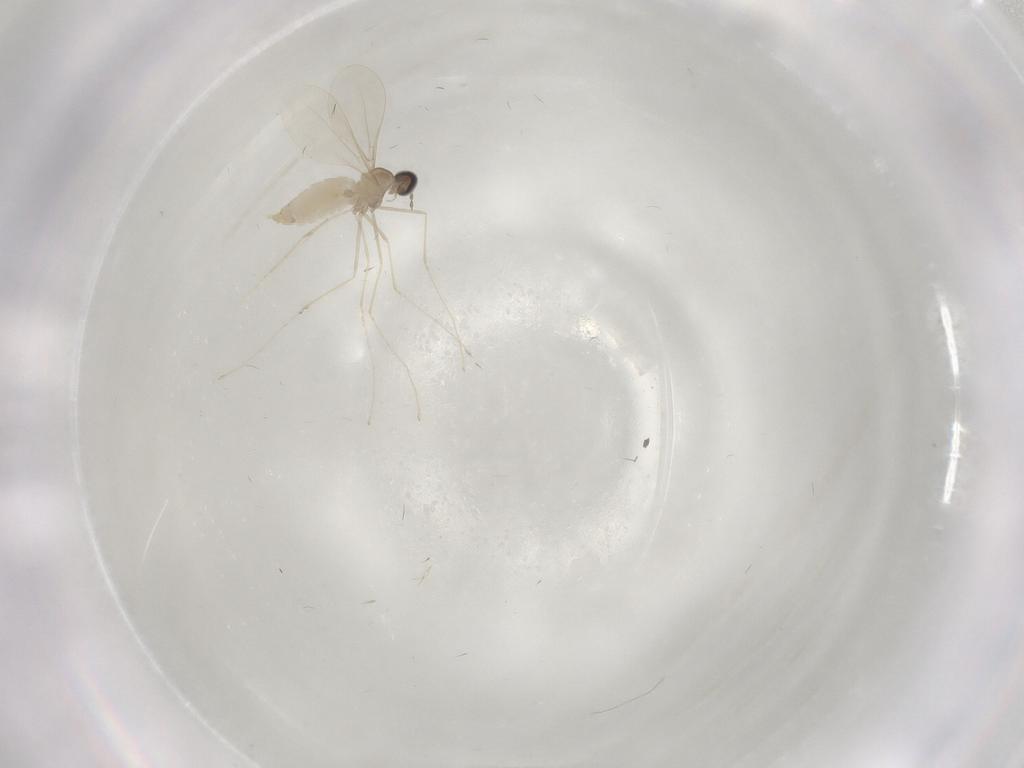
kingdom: Animalia
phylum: Arthropoda
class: Insecta
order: Diptera
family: Cecidomyiidae
